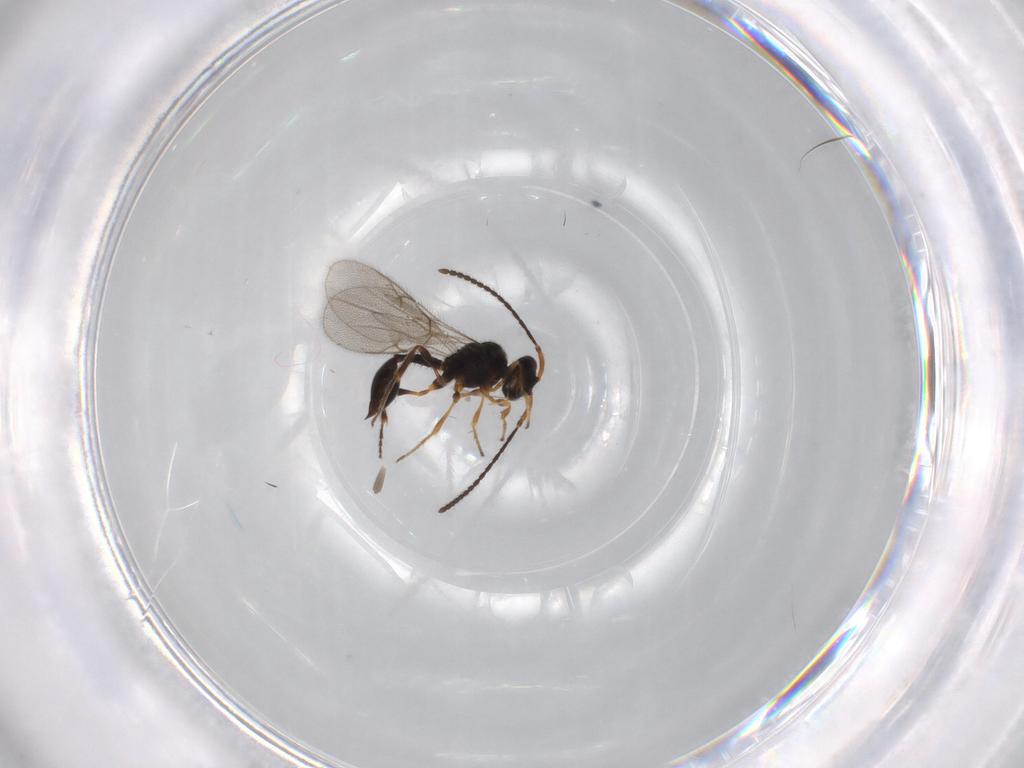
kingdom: Animalia
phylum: Arthropoda
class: Insecta
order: Hymenoptera
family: Diapriidae
